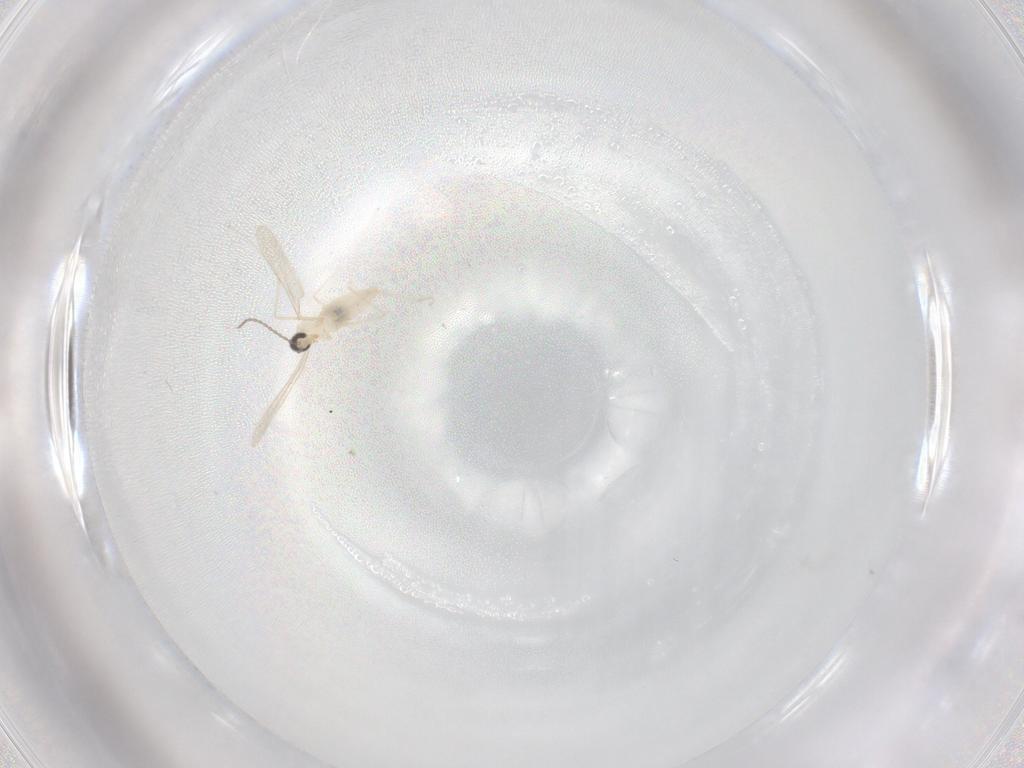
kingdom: Animalia
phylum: Arthropoda
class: Insecta
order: Diptera
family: Cecidomyiidae
